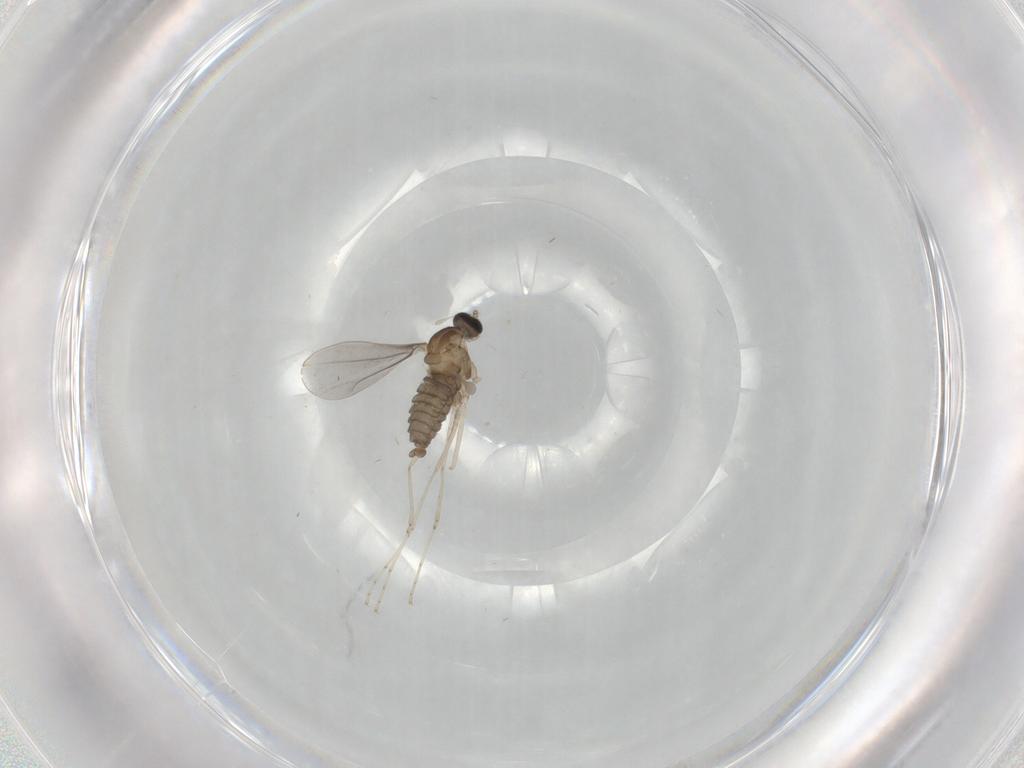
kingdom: Animalia
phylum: Arthropoda
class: Insecta
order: Diptera
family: Cecidomyiidae
